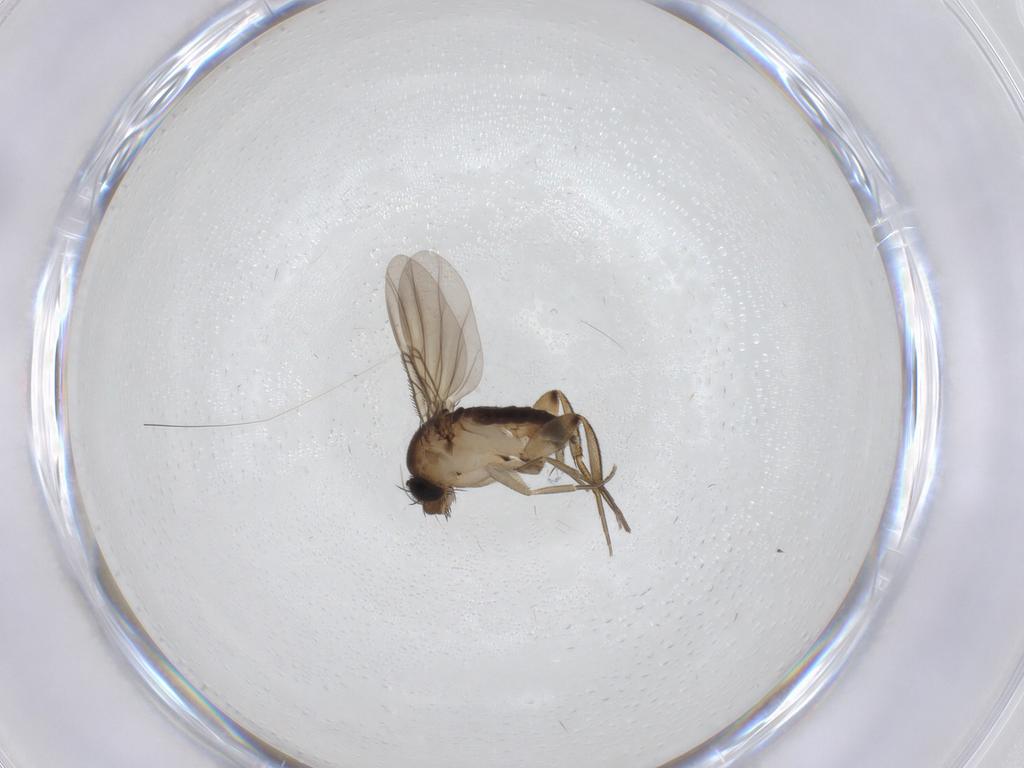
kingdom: Animalia
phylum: Arthropoda
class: Insecta
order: Diptera
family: Phoridae
